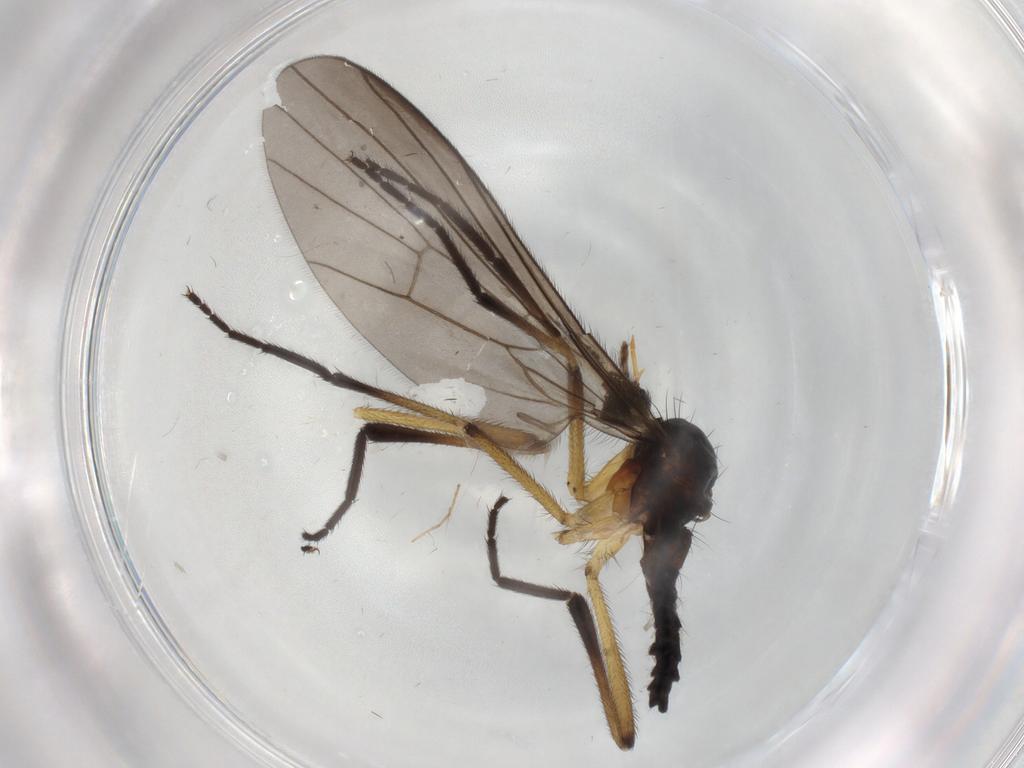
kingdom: Animalia
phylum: Arthropoda
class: Insecta
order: Diptera
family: Empididae
